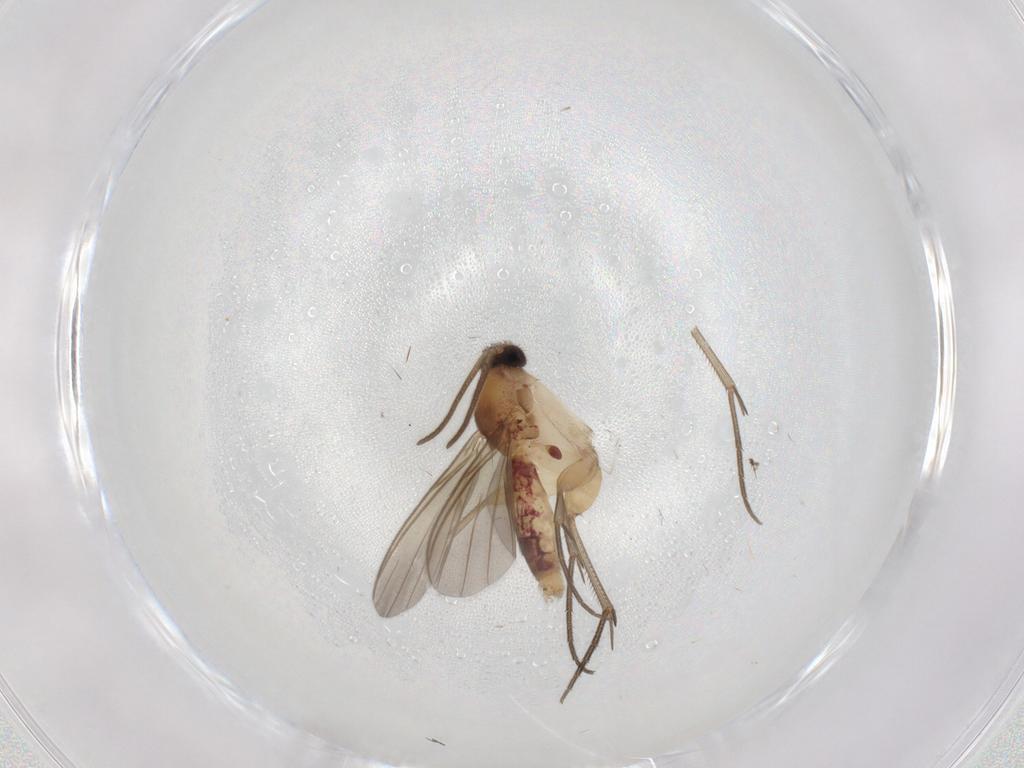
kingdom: Animalia
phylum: Arthropoda
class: Insecta
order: Diptera
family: Mycetophilidae
